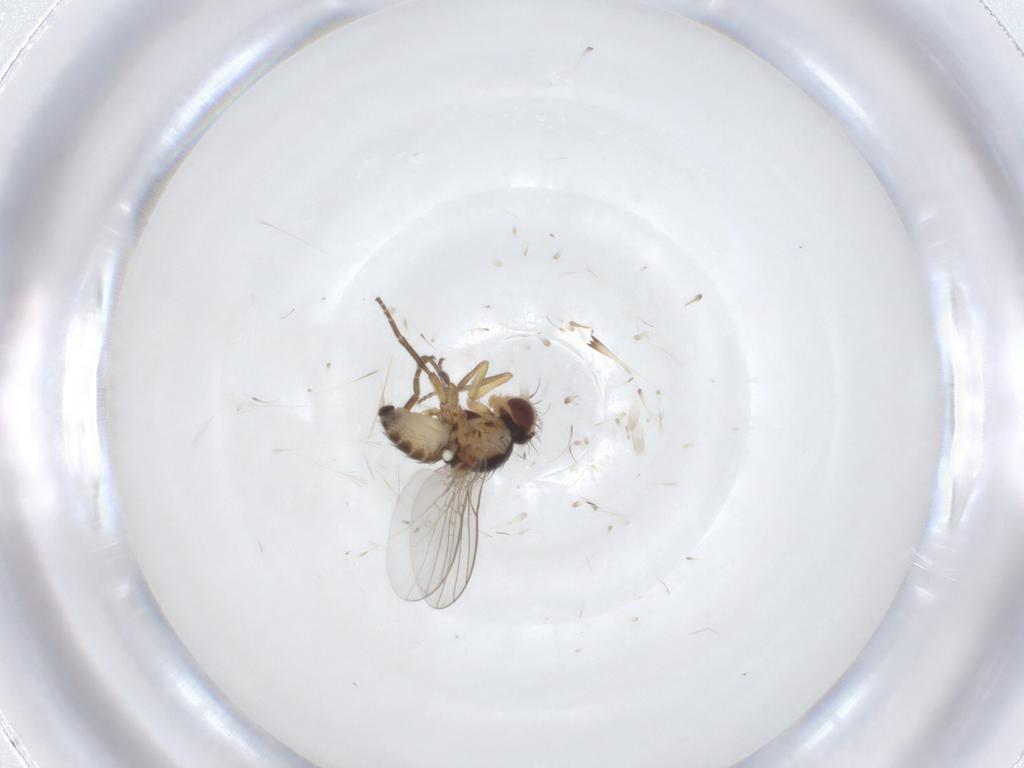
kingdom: Animalia
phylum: Arthropoda
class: Insecta
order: Diptera
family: Agromyzidae
